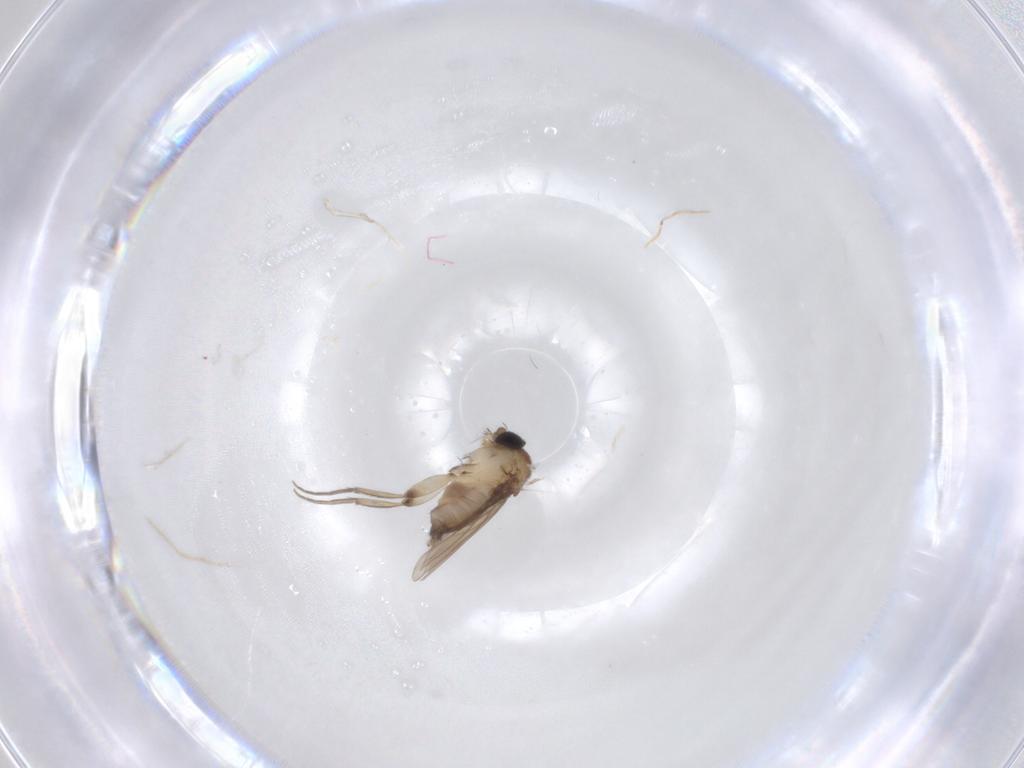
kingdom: Animalia
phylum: Arthropoda
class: Insecta
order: Diptera
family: Phoridae
